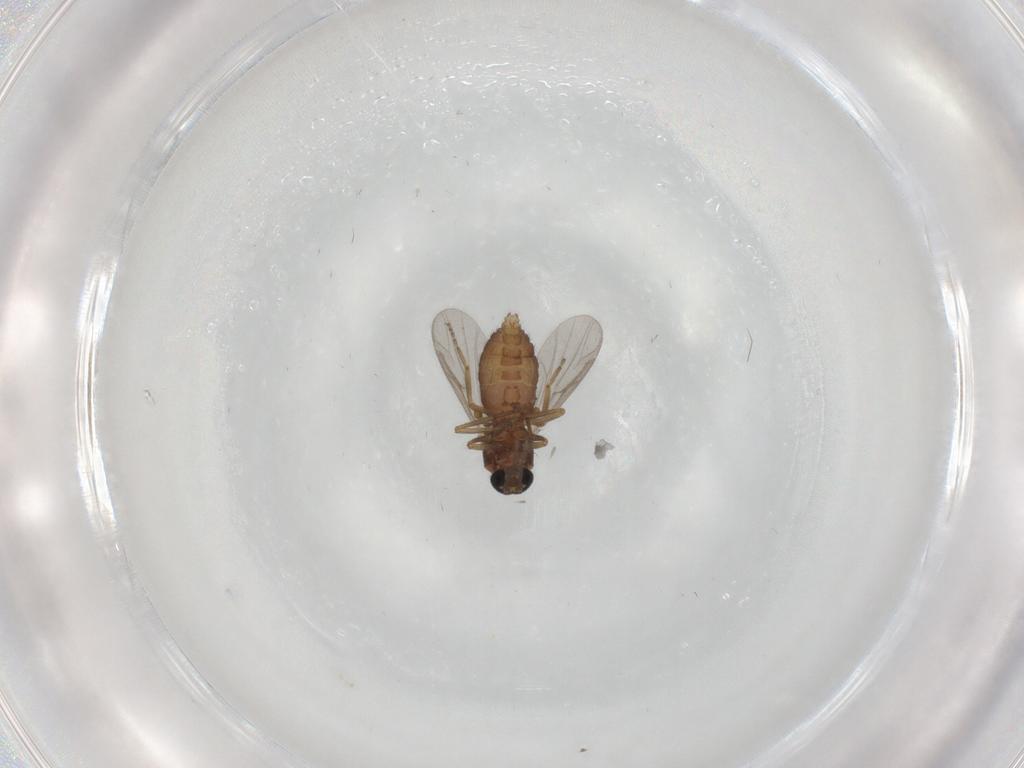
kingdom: Animalia
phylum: Arthropoda
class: Insecta
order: Diptera
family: Ceratopogonidae
